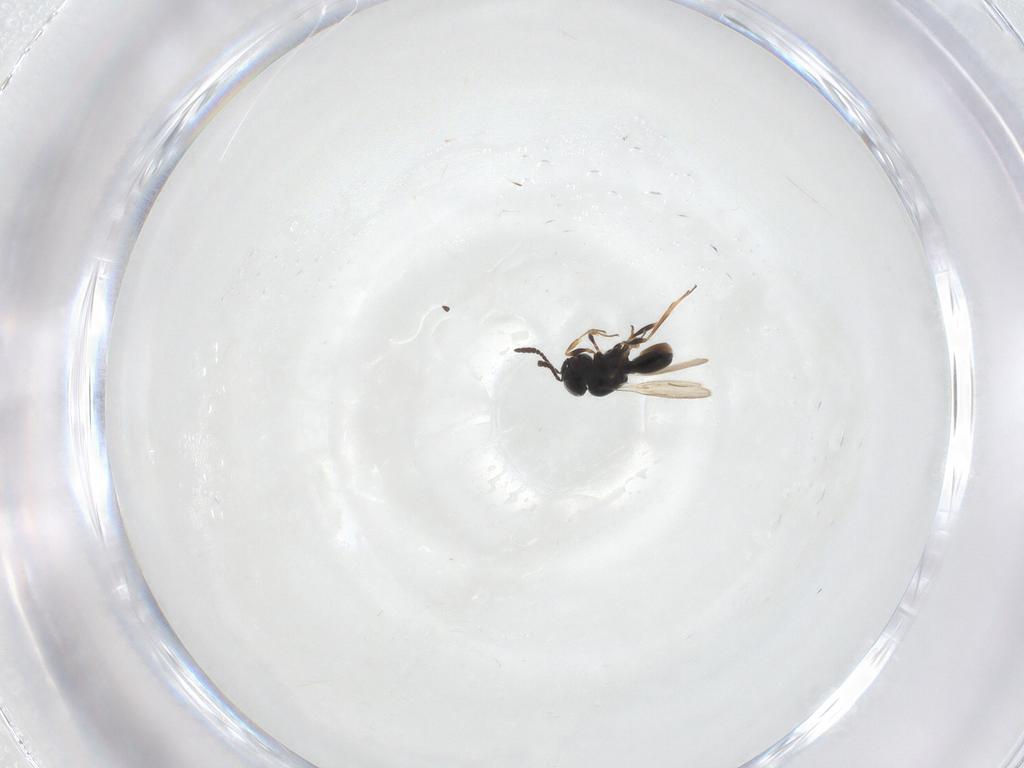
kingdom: Animalia
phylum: Arthropoda
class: Insecta
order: Hymenoptera
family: Scelionidae
